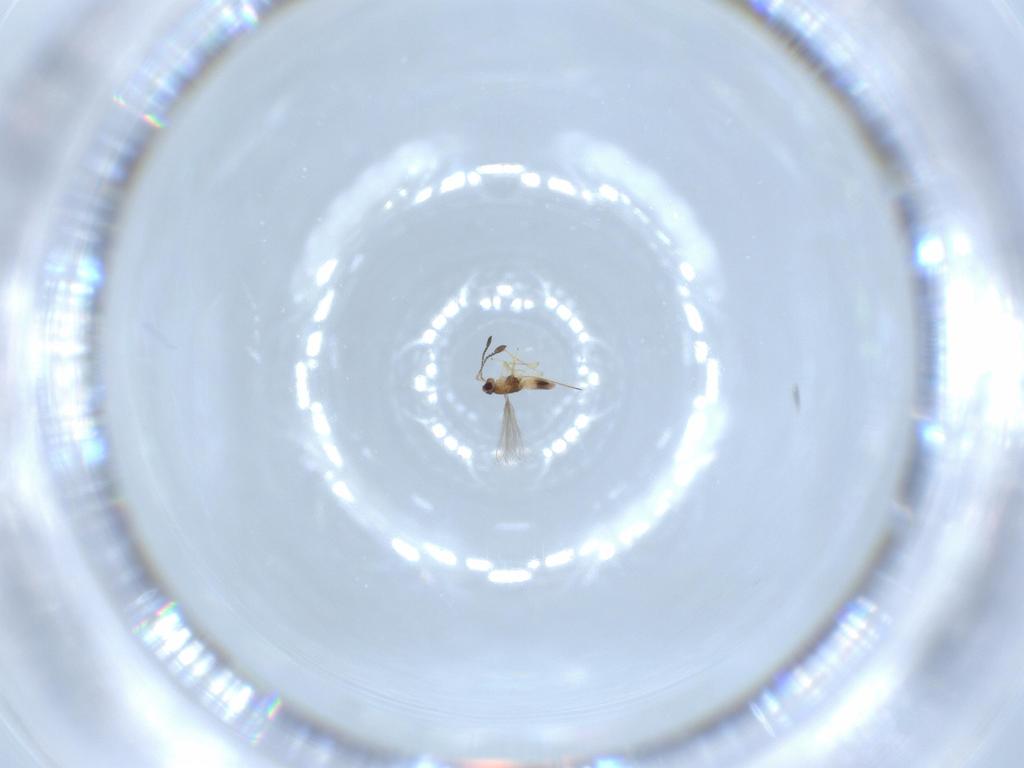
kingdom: Animalia
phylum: Arthropoda
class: Insecta
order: Hymenoptera
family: Mymaridae
